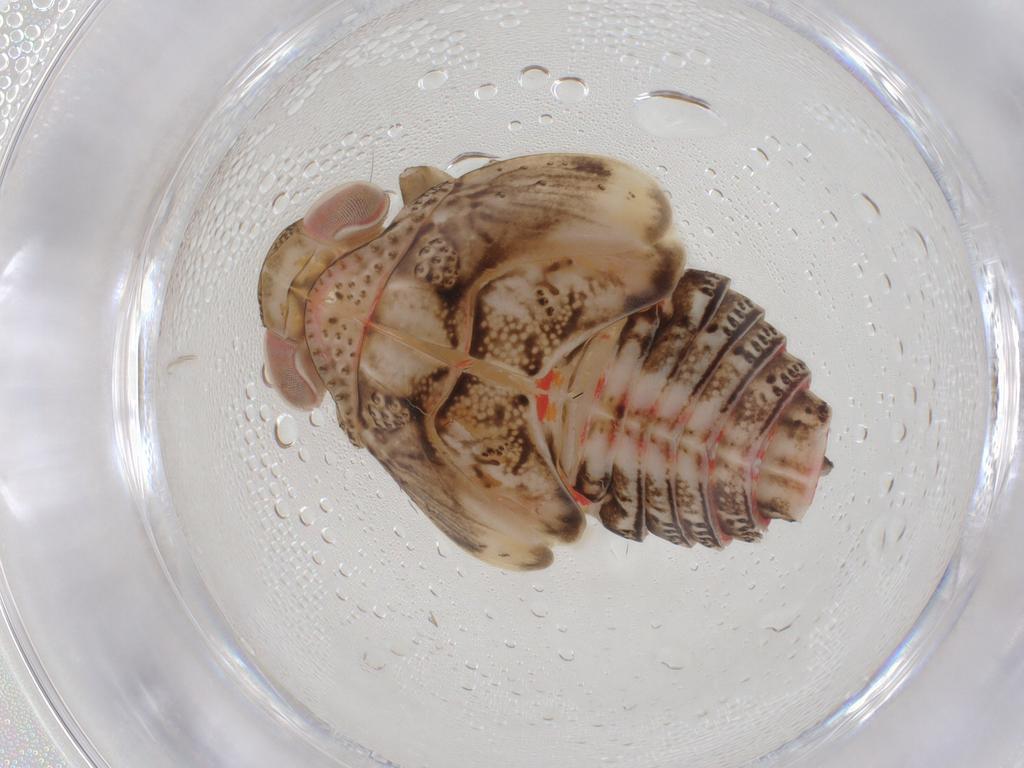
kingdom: Animalia
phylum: Arthropoda
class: Insecta
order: Hemiptera
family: Issidae
